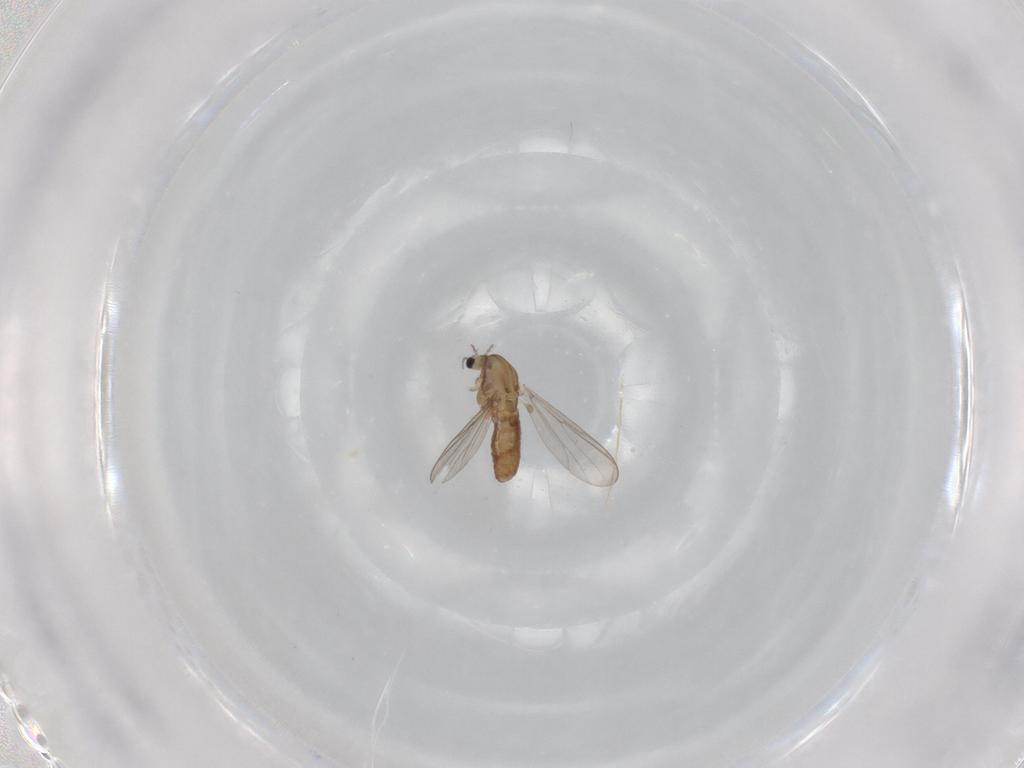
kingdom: Animalia
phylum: Arthropoda
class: Insecta
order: Diptera
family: Chironomidae
